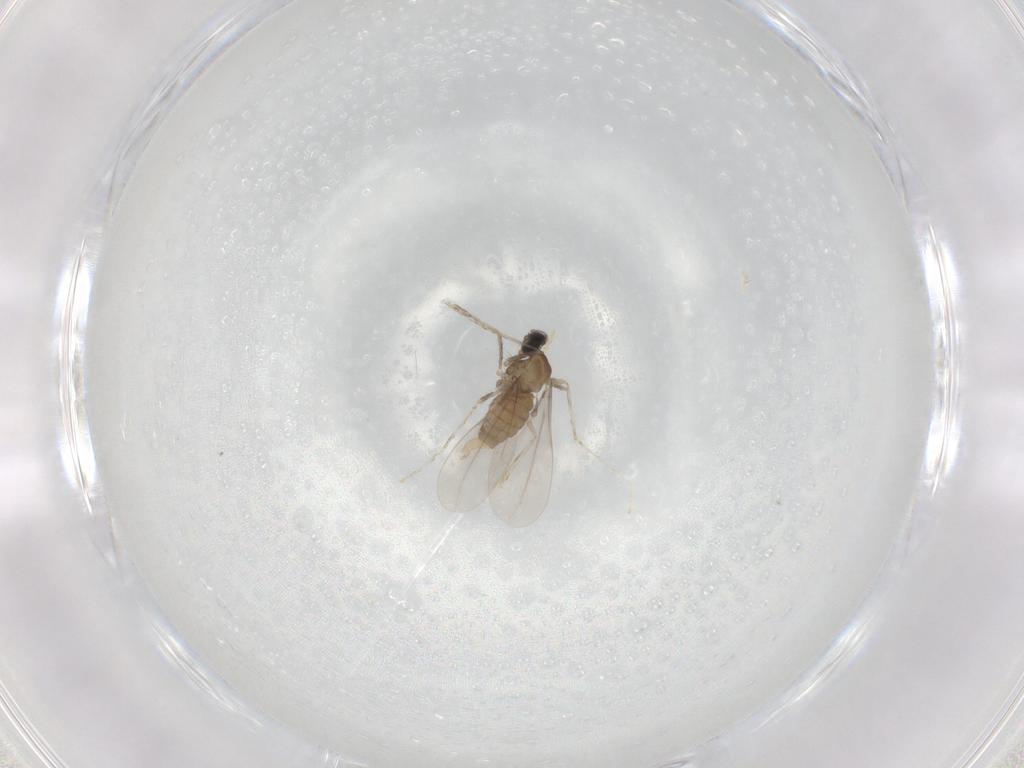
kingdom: Animalia
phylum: Arthropoda
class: Insecta
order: Diptera
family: Cecidomyiidae
